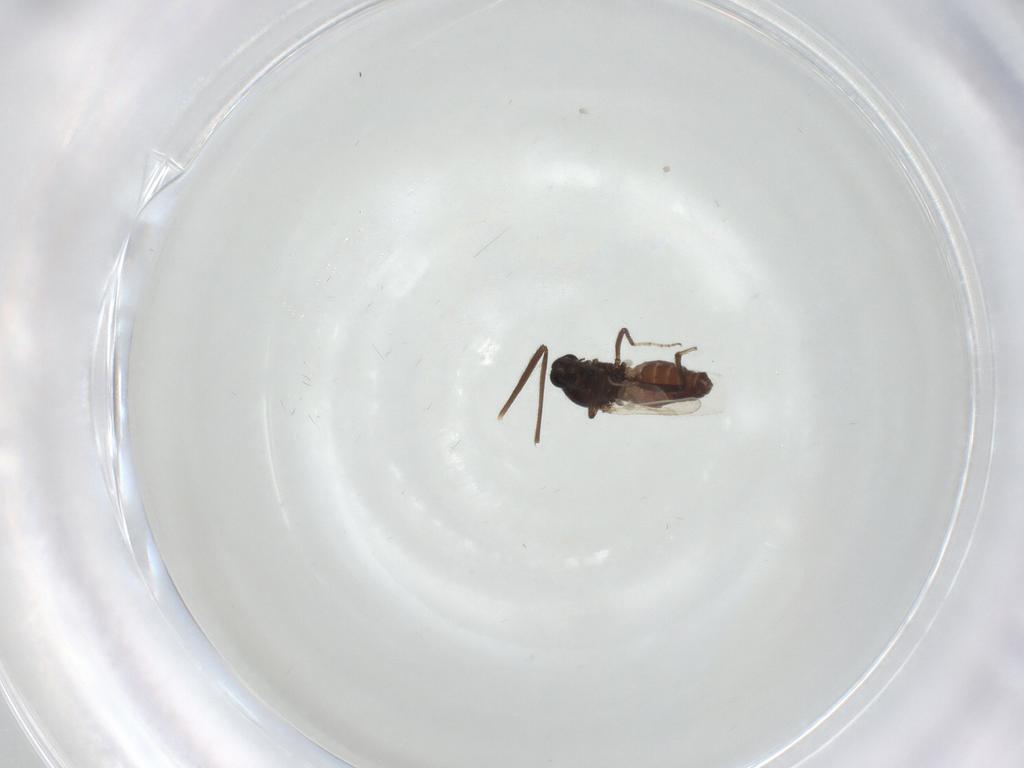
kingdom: Animalia
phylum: Arthropoda
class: Insecta
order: Diptera
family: Ceratopogonidae
